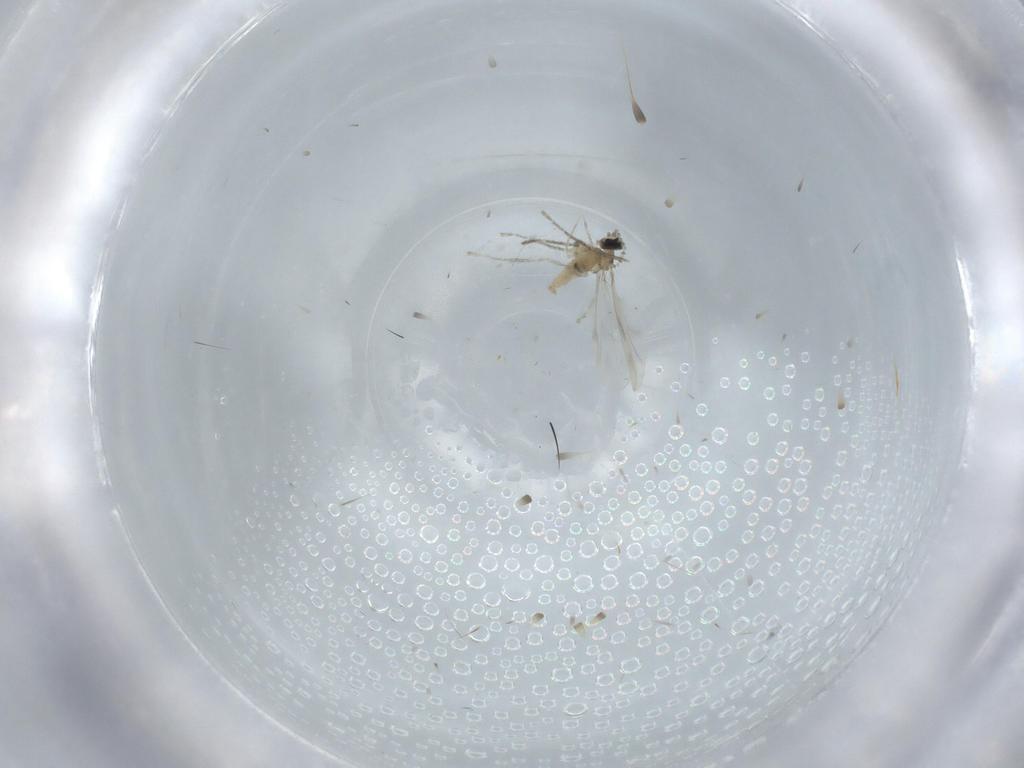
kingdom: Animalia
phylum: Arthropoda
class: Insecta
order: Diptera
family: Cecidomyiidae
